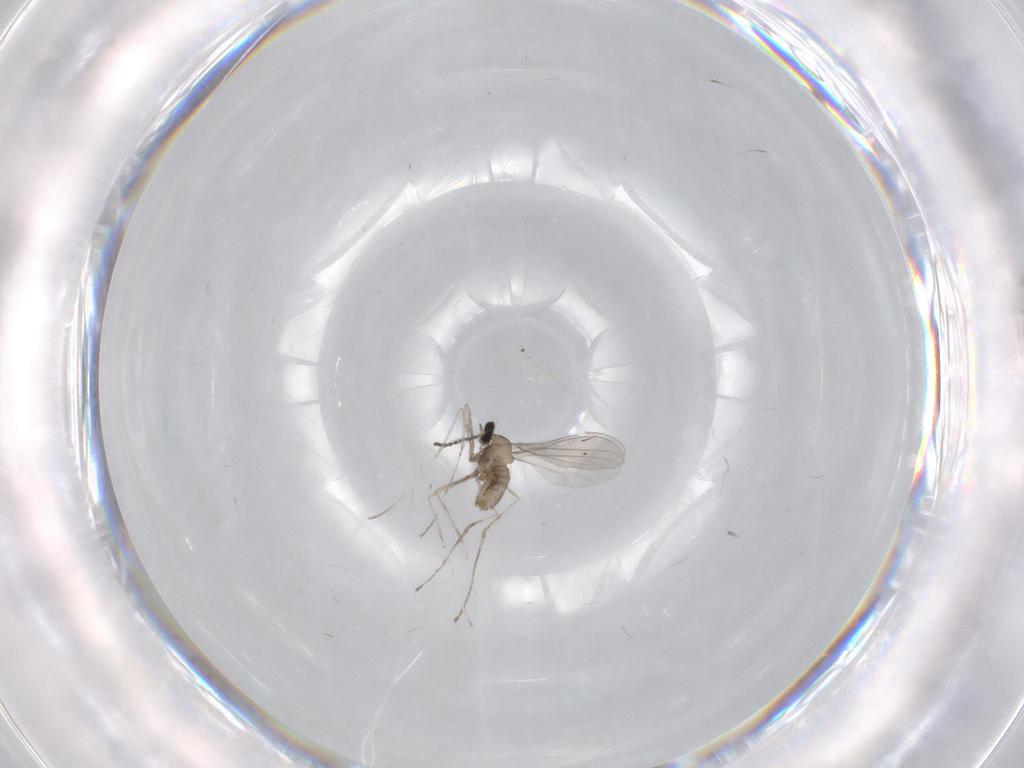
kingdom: Animalia
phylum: Arthropoda
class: Insecta
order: Diptera
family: Cecidomyiidae
